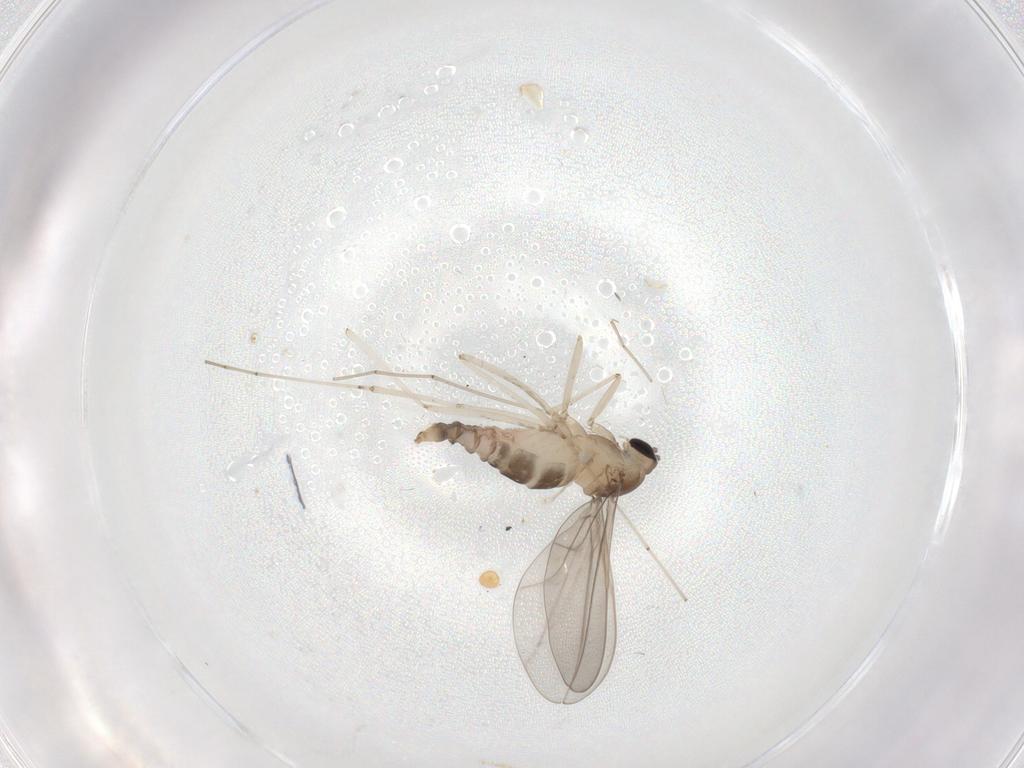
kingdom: Animalia
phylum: Arthropoda
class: Insecta
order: Diptera
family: Cecidomyiidae
